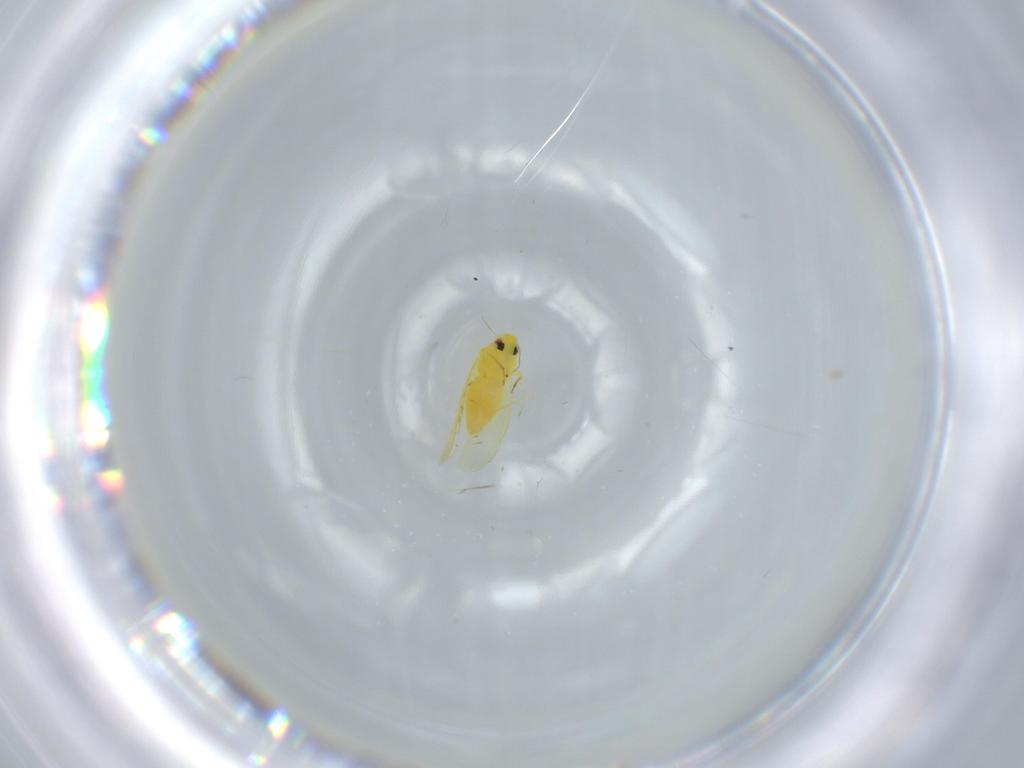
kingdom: Animalia
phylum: Arthropoda
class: Insecta
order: Hemiptera
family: Aleyrodidae
